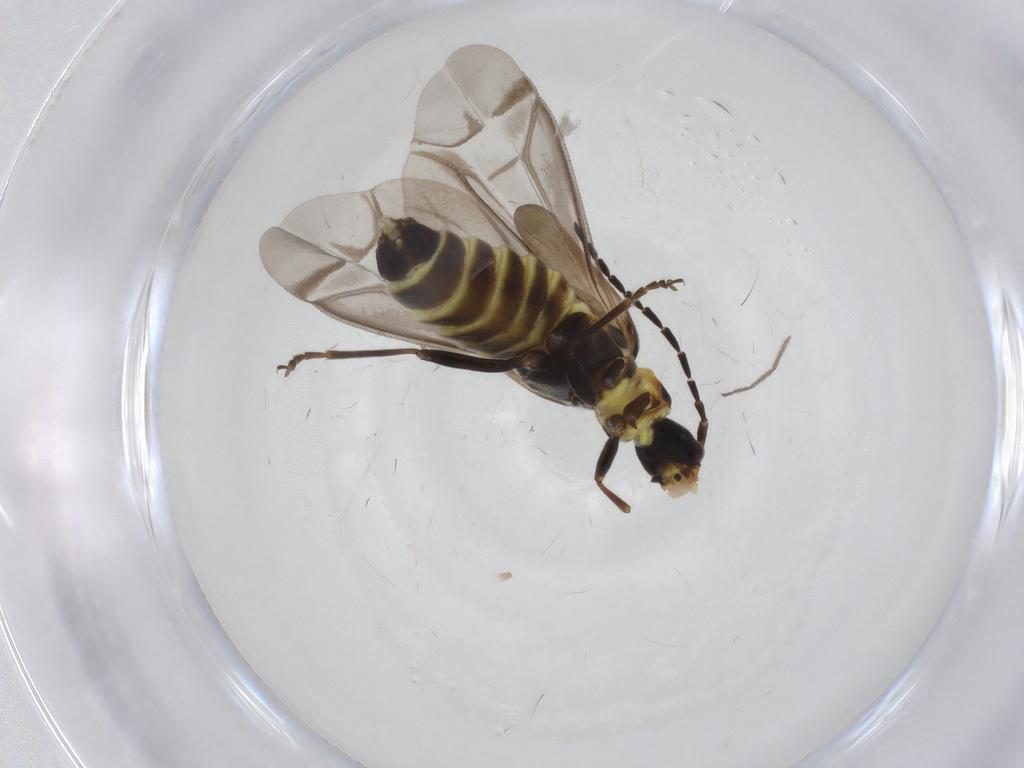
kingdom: Animalia
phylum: Arthropoda
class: Insecta
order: Coleoptera
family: Cantharidae
